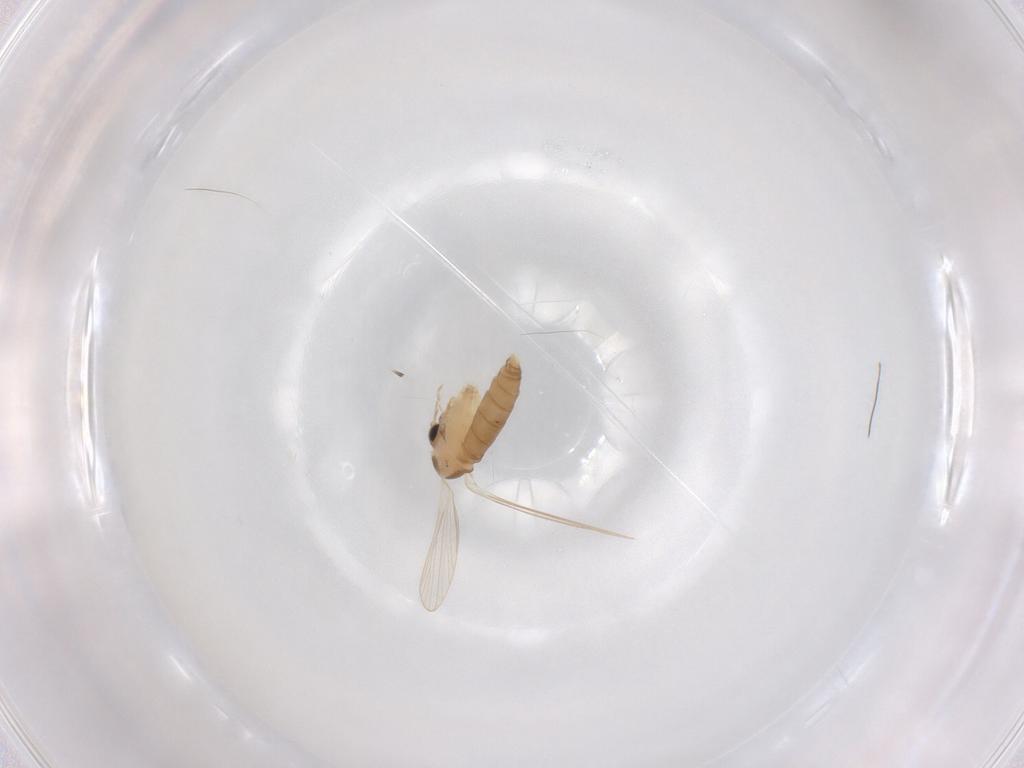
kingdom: Animalia
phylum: Arthropoda
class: Insecta
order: Diptera
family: Psychodidae
